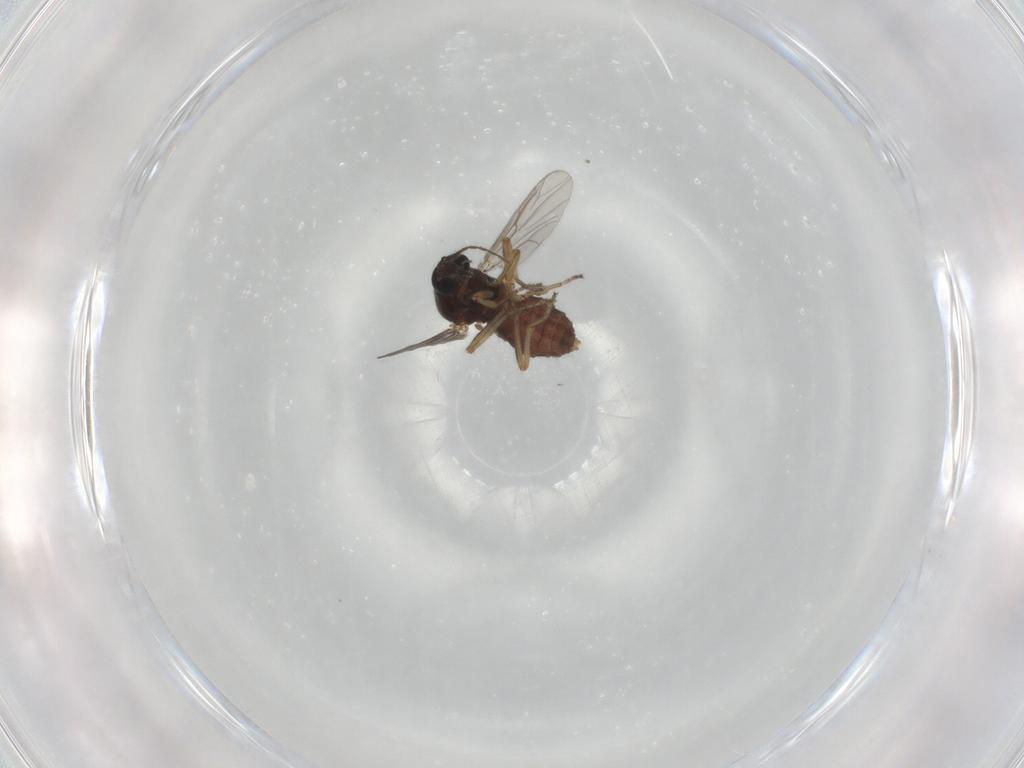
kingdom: Animalia
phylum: Arthropoda
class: Insecta
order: Diptera
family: Ceratopogonidae
